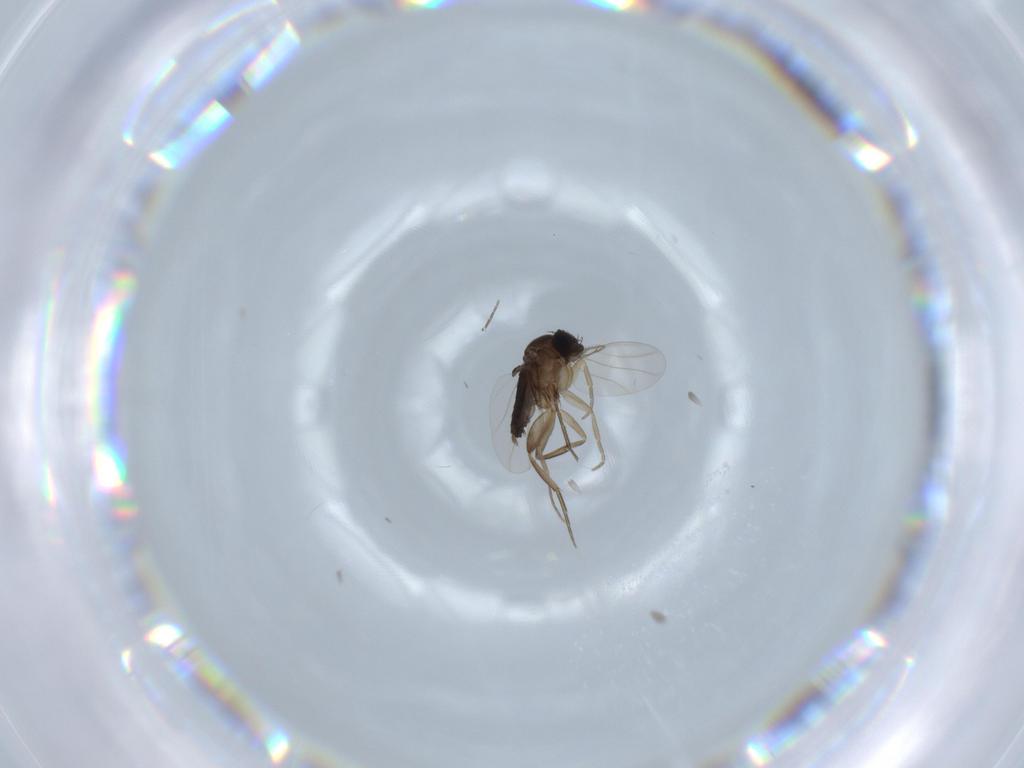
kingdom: Animalia
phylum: Arthropoda
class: Insecta
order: Diptera
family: Phoridae
